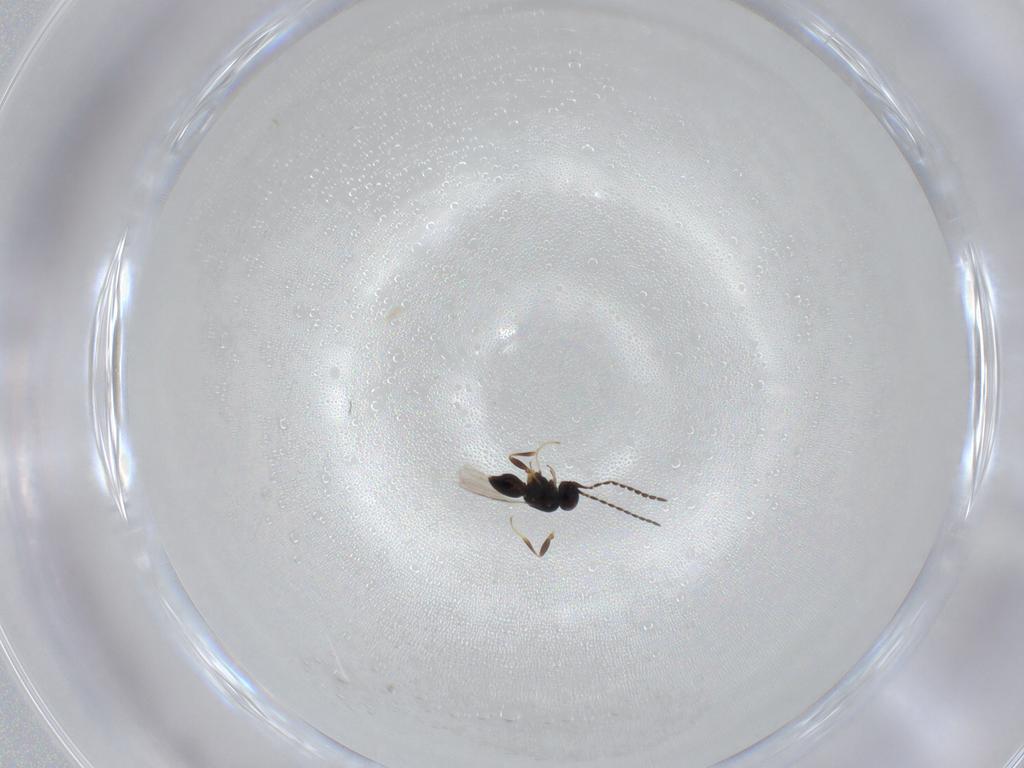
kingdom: Animalia
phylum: Arthropoda
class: Insecta
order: Hymenoptera
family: Ceraphronidae
